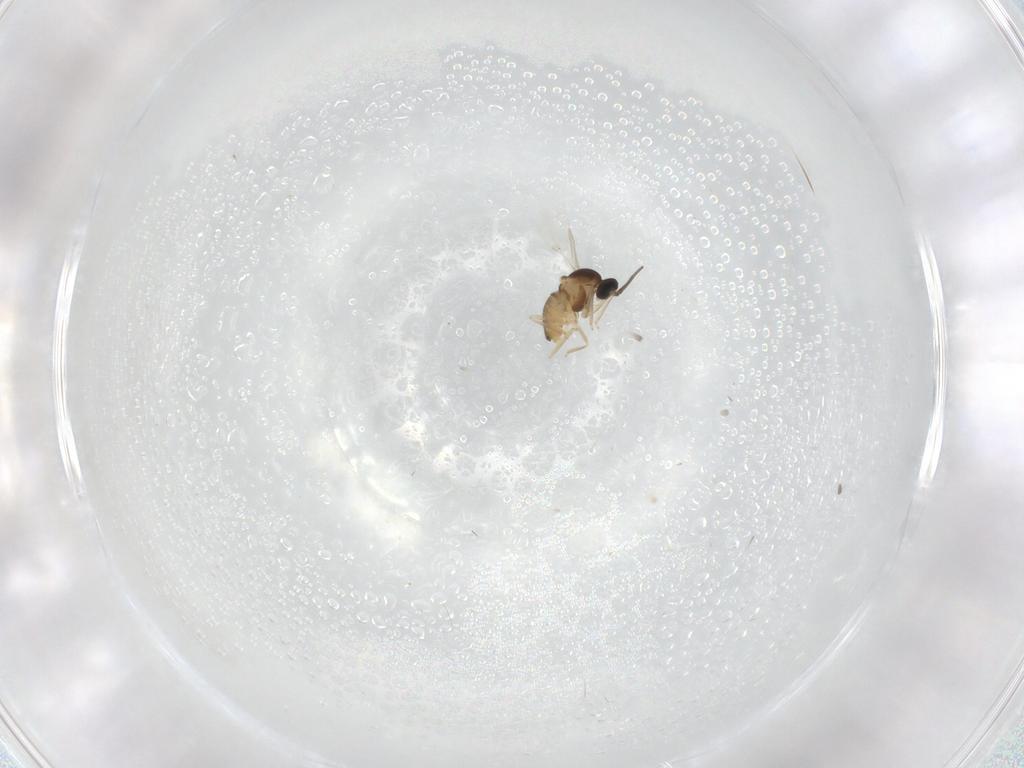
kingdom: Animalia
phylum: Arthropoda
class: Insecta
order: Diptera
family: Cecidomyiidae
